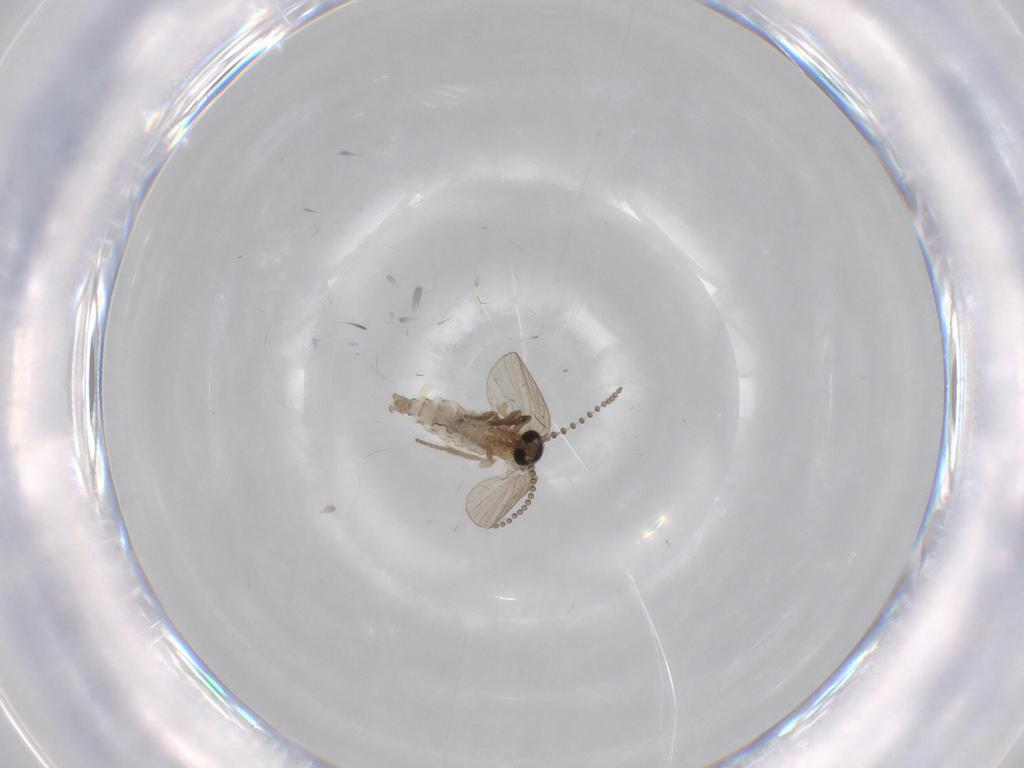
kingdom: Animalia
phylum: Arthropoda
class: Insecta
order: Diptera
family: Psychodidae
